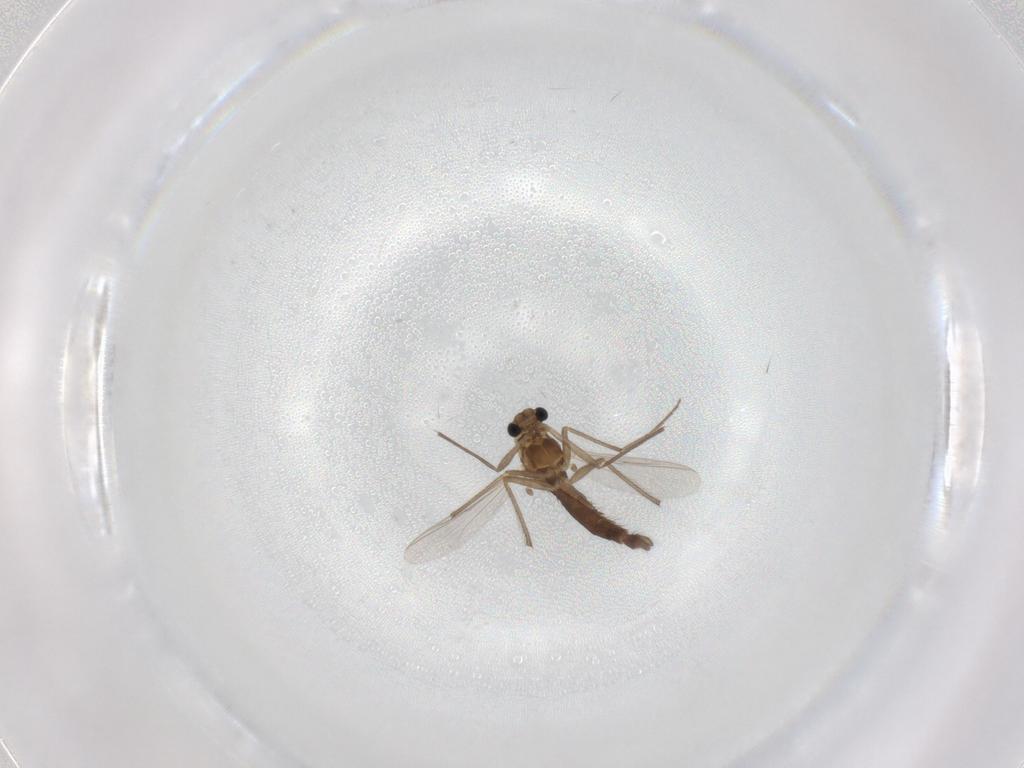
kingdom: Animalia
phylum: Arthropoda
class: Insecta
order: Diptera
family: Chironomidae
